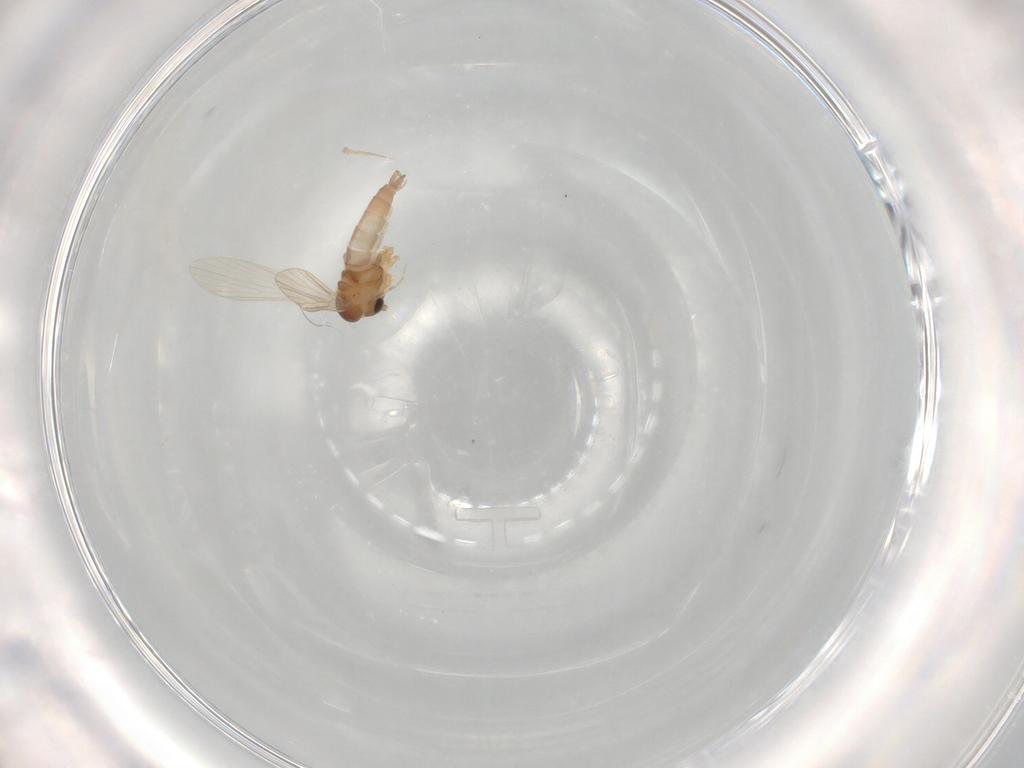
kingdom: Animalia
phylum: Arthropoda
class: Insecta
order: Diptera
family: Psychodidae
